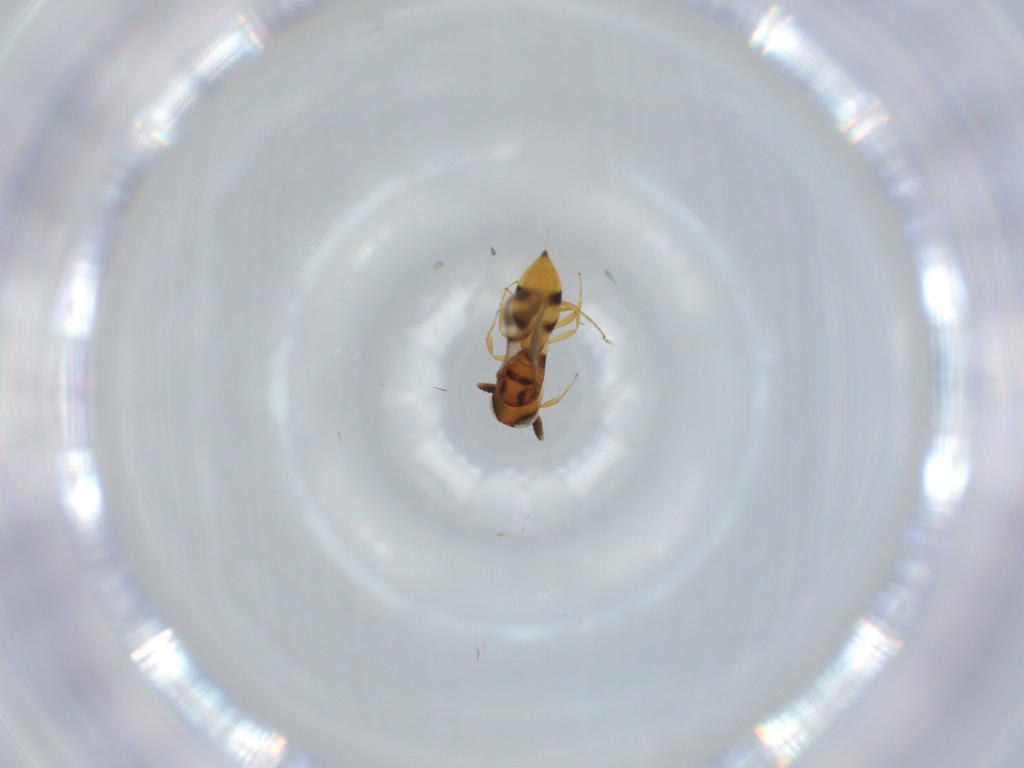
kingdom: Animalia
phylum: Arthropoda
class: Insecta
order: Hymenoptera
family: Scelionidae
